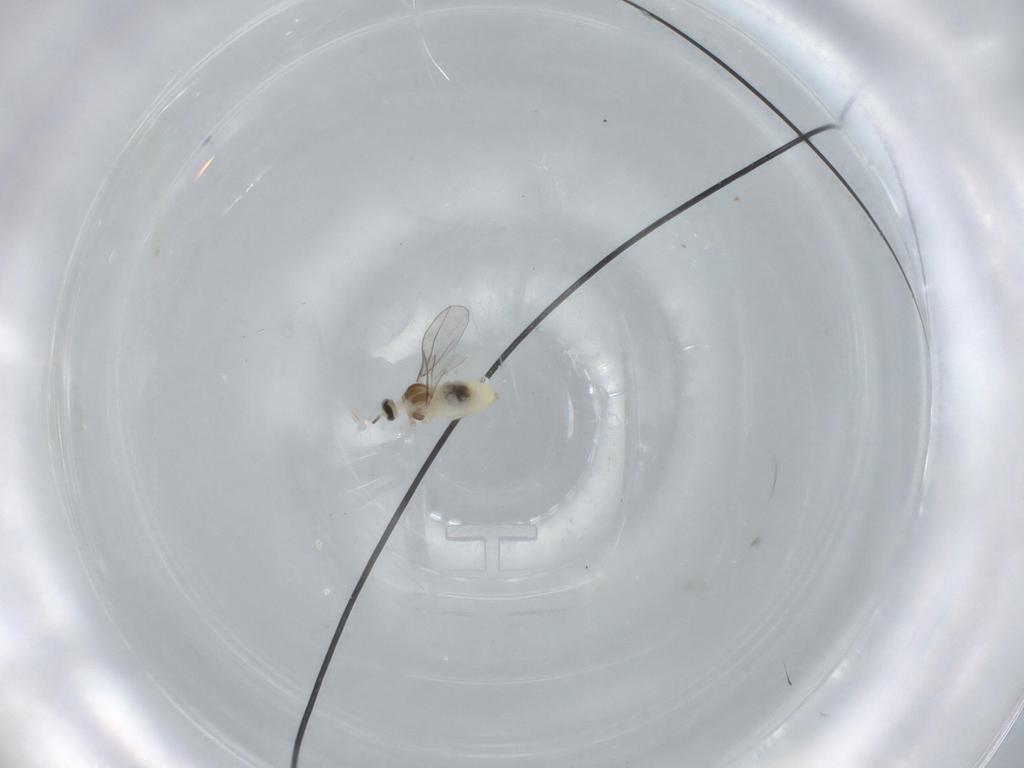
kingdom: Animalia
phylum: Arthropoda
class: Insecta
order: Diptera
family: Cecidomyiidae
